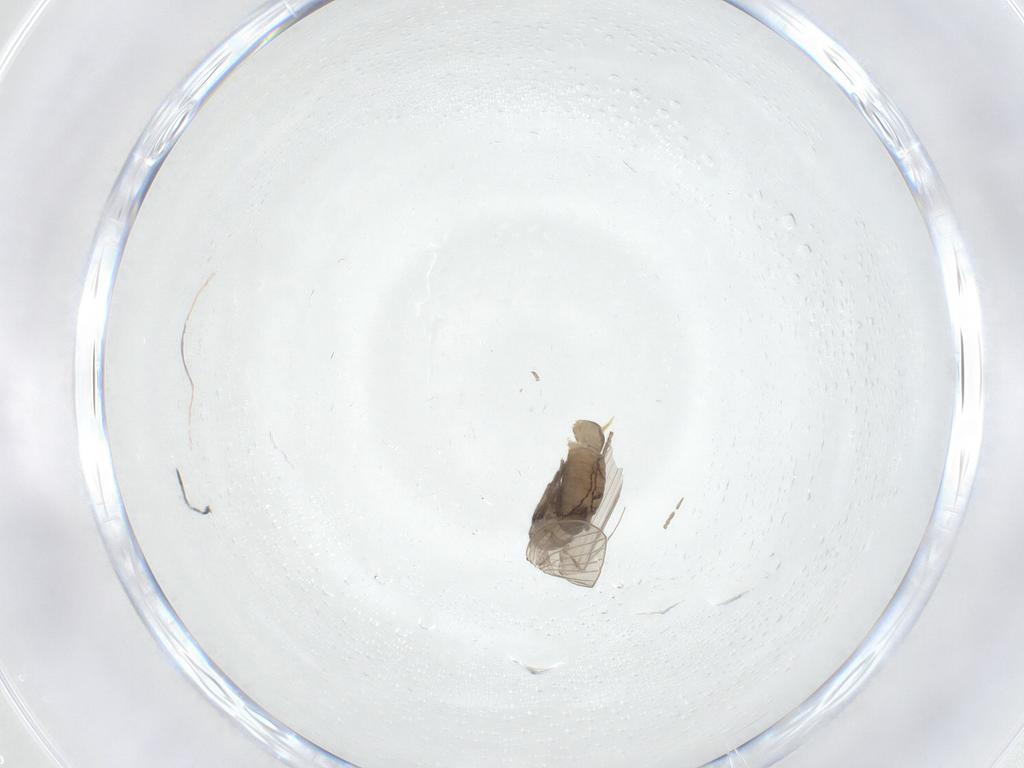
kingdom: Animalia
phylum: Arthropoda
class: Insecta
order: Diptera
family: Psychodidae
